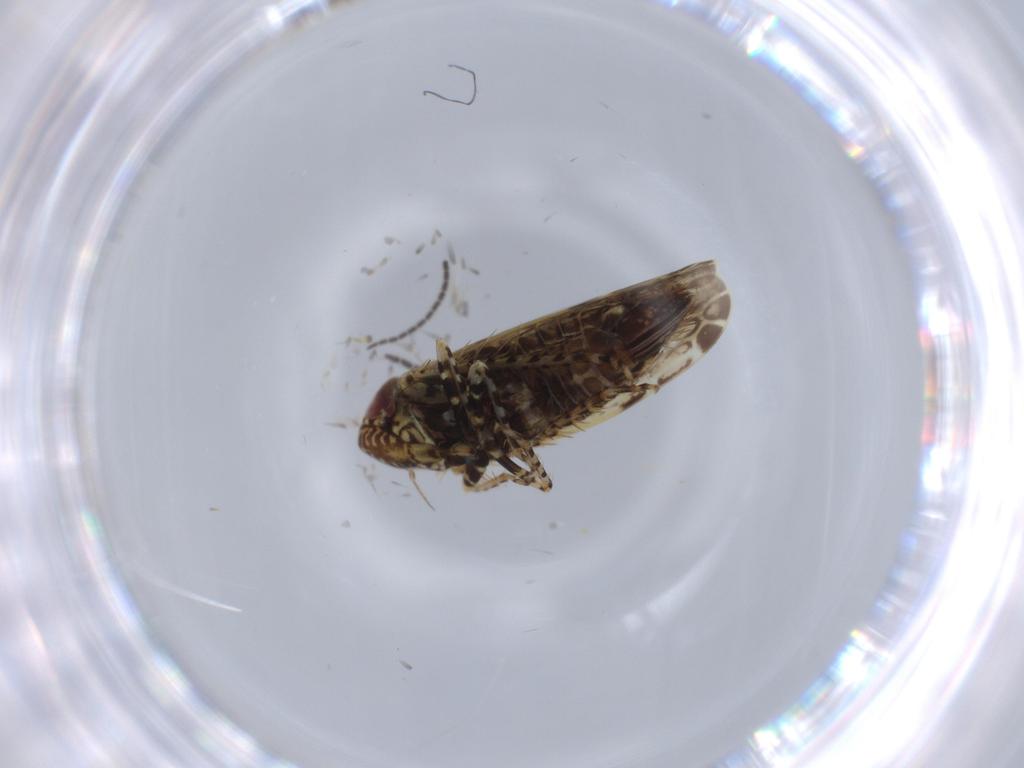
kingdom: Animalia
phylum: Arthropoda
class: Insecta
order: Hemiptera
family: Cicadellidae
